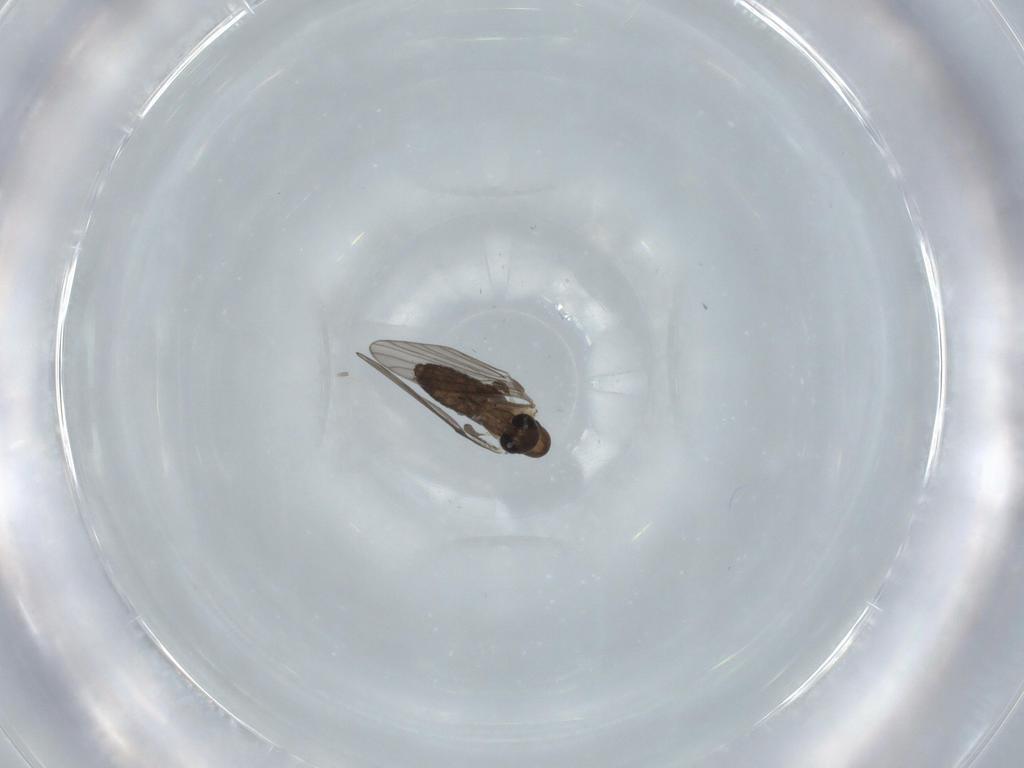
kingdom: Animalia
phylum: Arthropoda
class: Insecta
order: Diptera
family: Psychodidae
